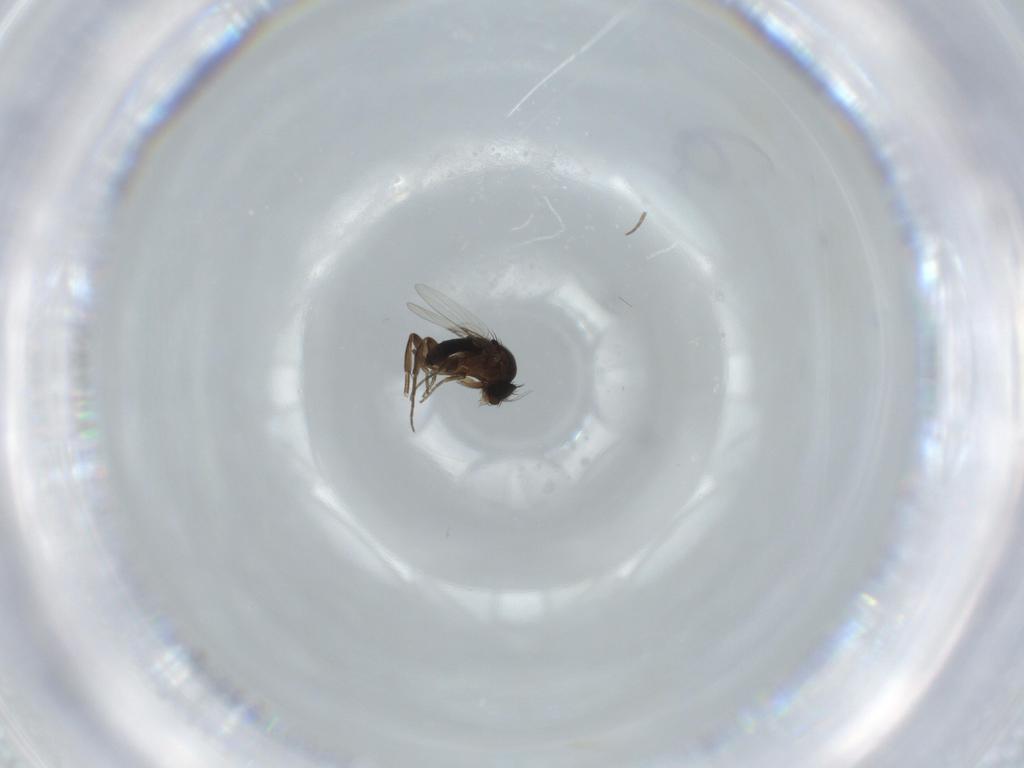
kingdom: Animalia
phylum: Arthropoda
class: Insecta
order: Diptera
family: Phoridae
